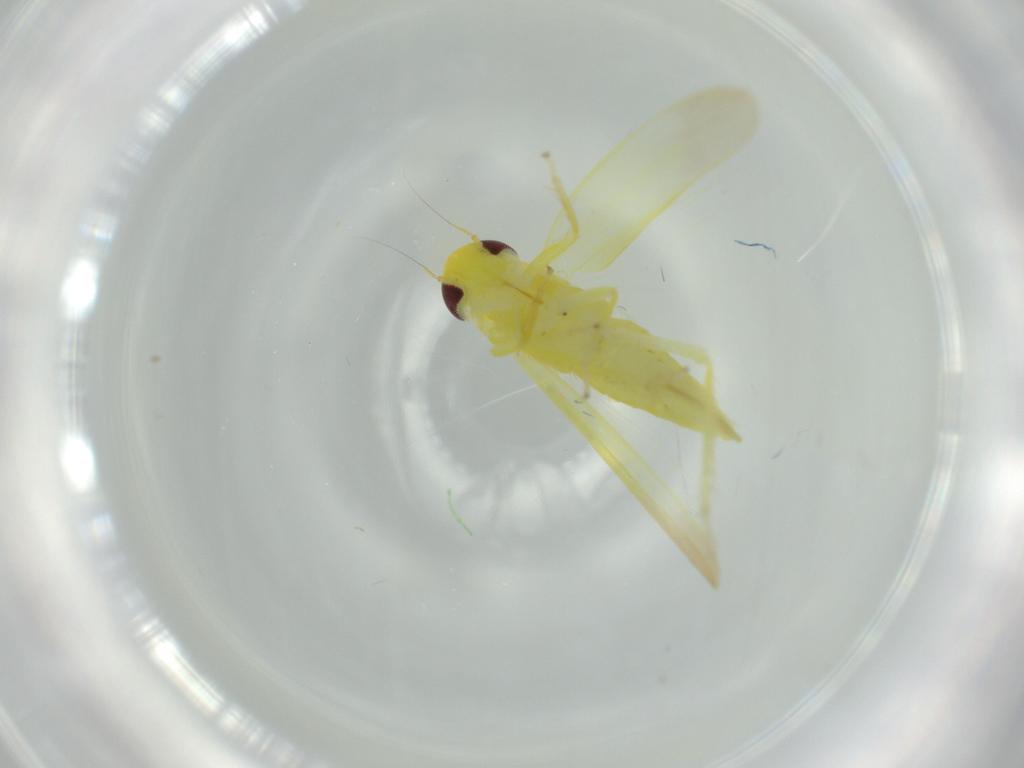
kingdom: Animalia
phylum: Arthropoda
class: Insecta
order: Hemiptera
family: Cicadellidae
